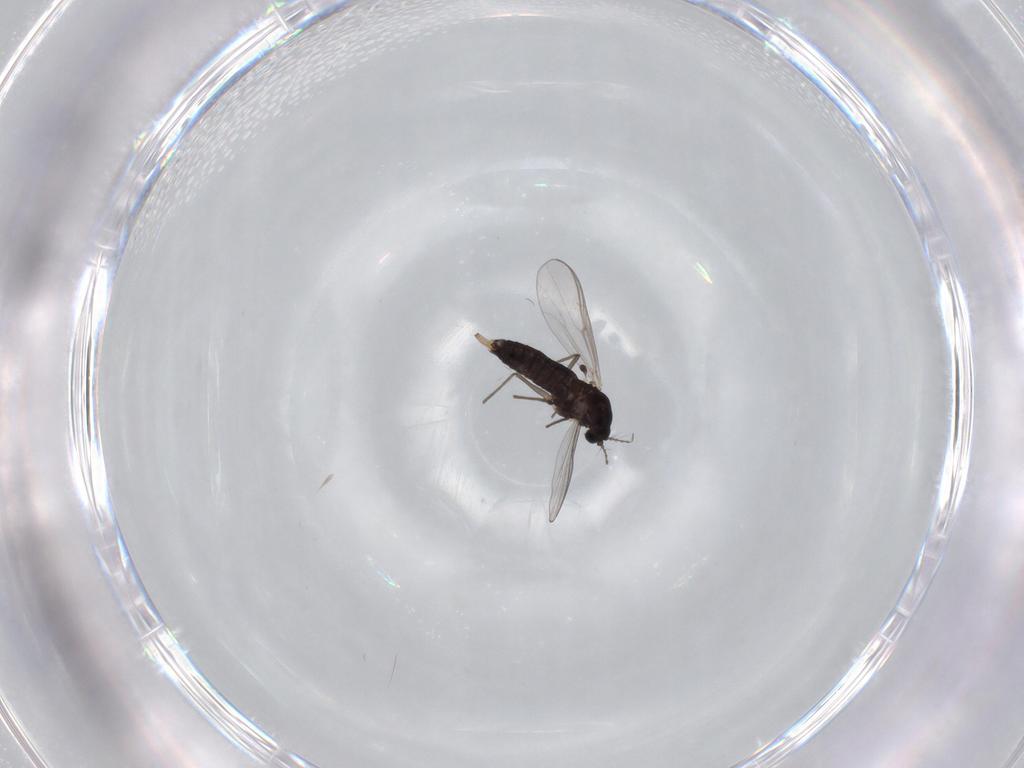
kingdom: Animalia
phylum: Arthropoda
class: Insecta
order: Diptera
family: Chironomidae
